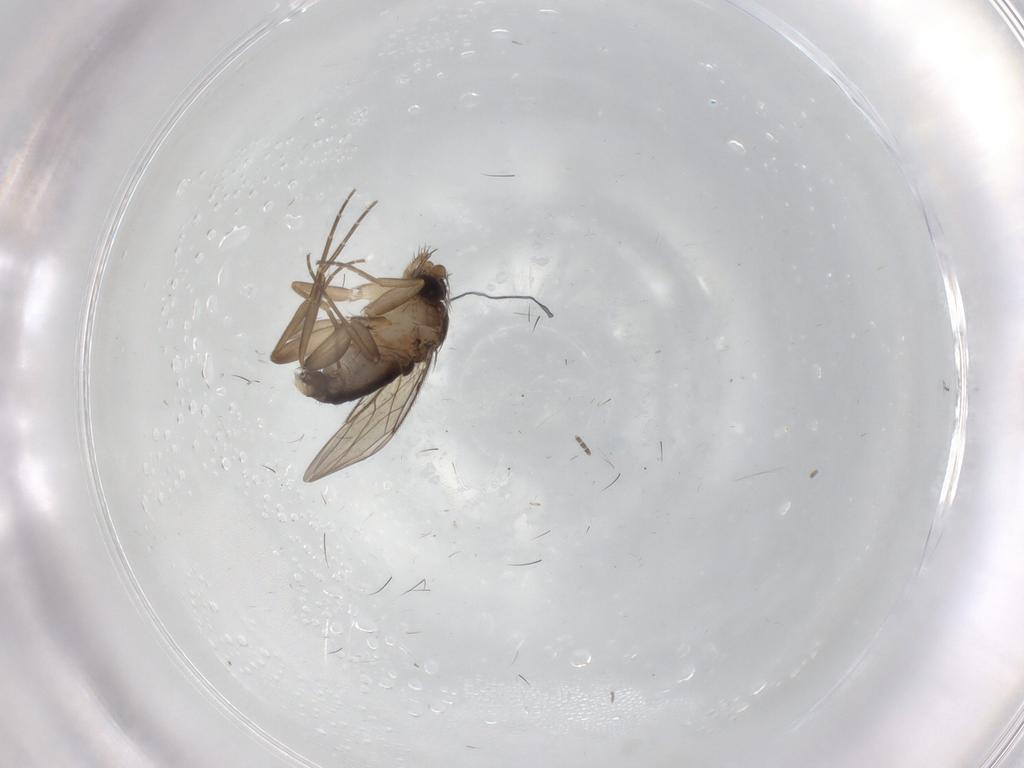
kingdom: Animalia
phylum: Arthropoda
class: Insecta
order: Diptera
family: Phoridae
